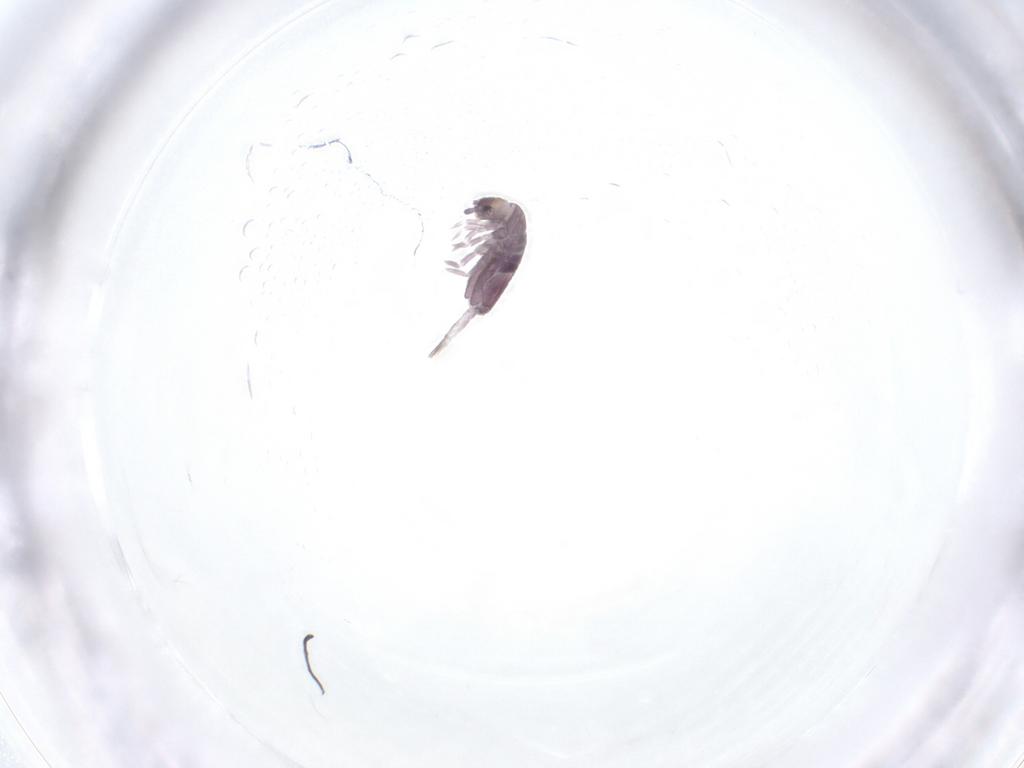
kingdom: Animalia
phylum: Arthropoda
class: Collembola
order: Entomobryomorpha
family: Entomobryidae
